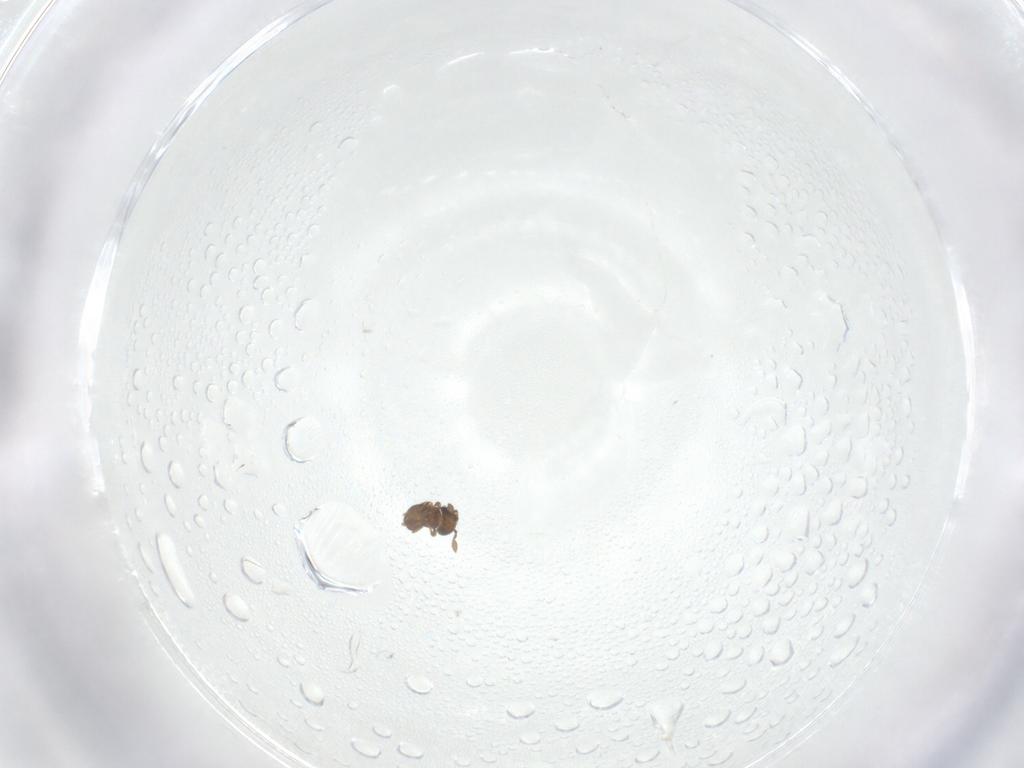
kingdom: Animalia
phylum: Arthropoda
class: Insecta
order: Hymenoptera
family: Scelionidae
